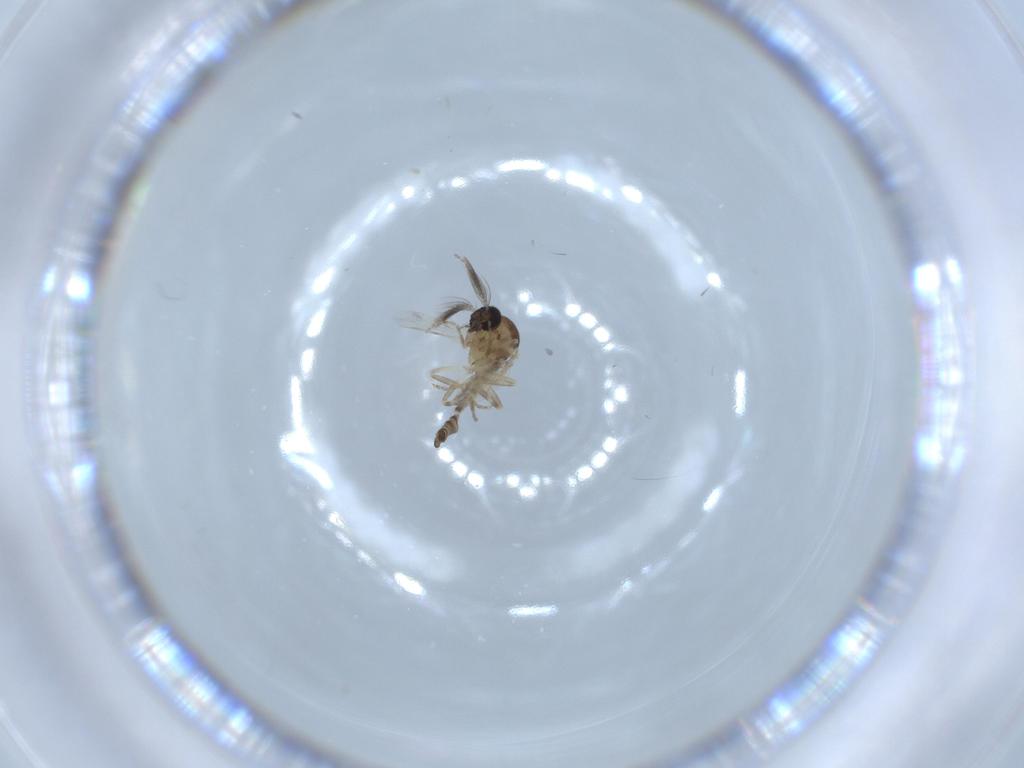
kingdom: Animalia
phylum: Arthropoda
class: Insecta
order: Diptera
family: Ceratopogonidae
